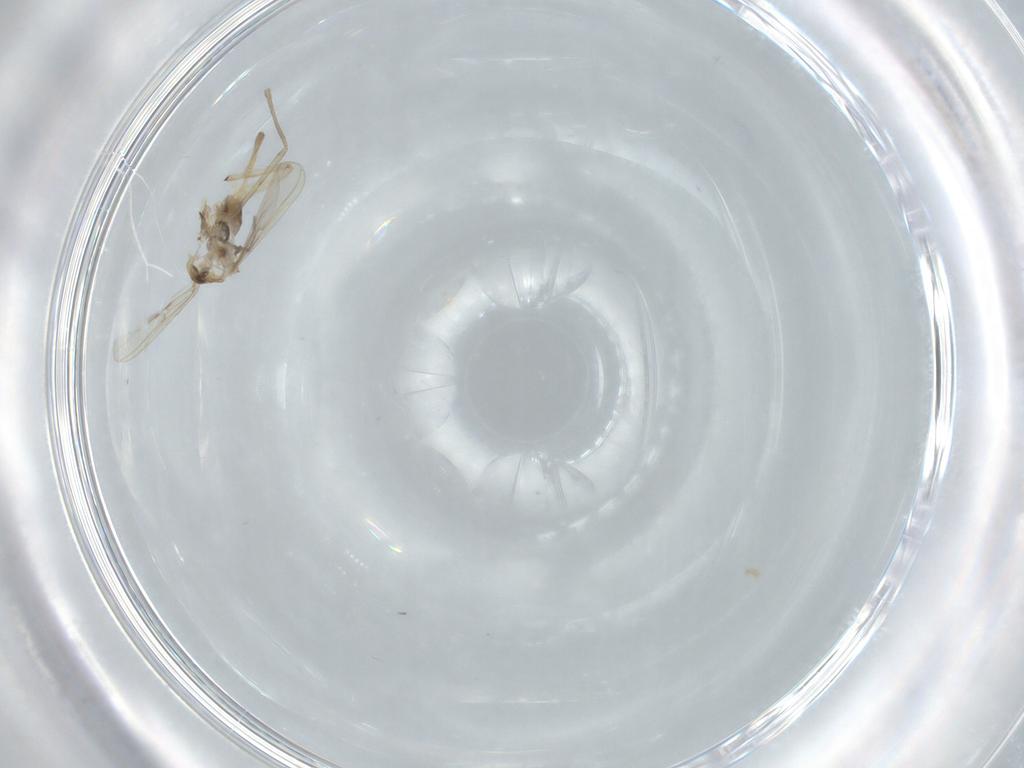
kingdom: Animalia
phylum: Arthropoda
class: Insecta
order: Diptera
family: Chironomidae
